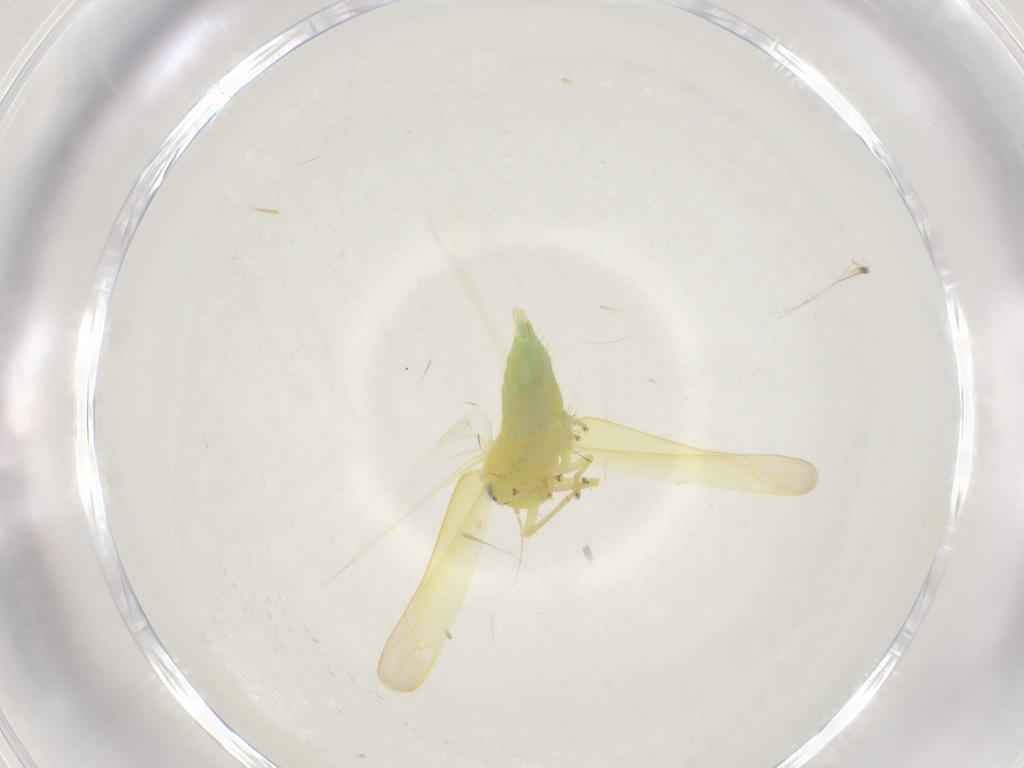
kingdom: Animalia
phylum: Arthropoda
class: Insecta
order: Hemiptera
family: Cicadellidae
